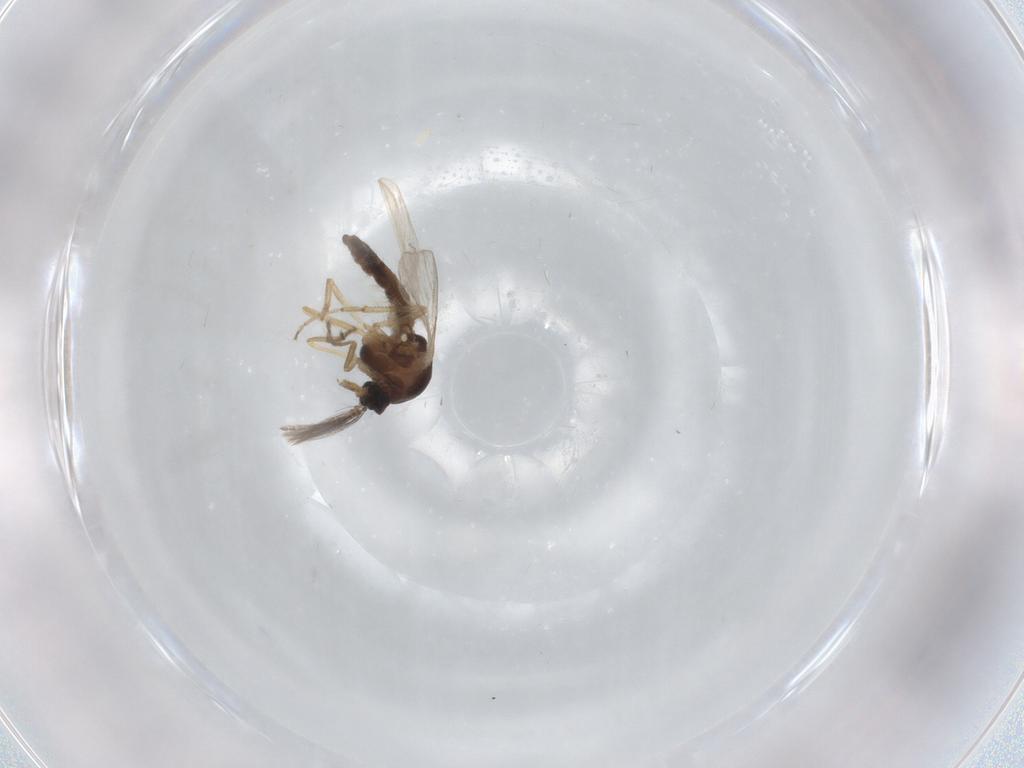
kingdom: Animalia
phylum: Arthropoda
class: Insecta
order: Diptera
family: Ceratopogonidae
